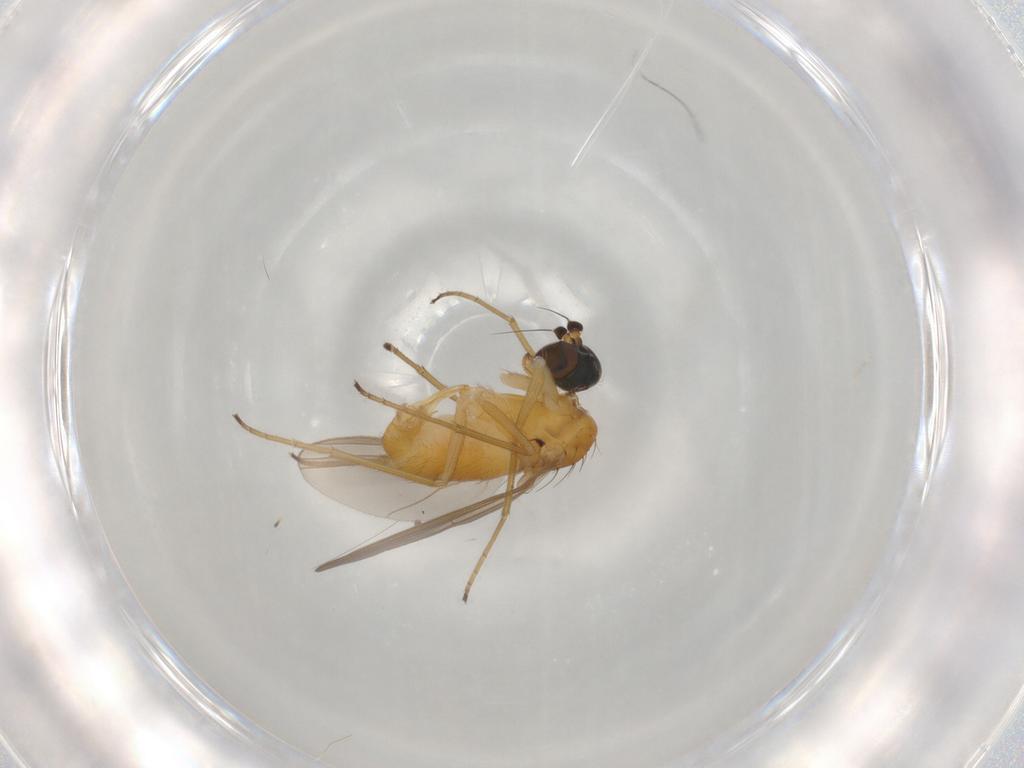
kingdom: Animalia
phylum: Arthropoda
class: Insecta
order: Diptera
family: Dolichopodidae
